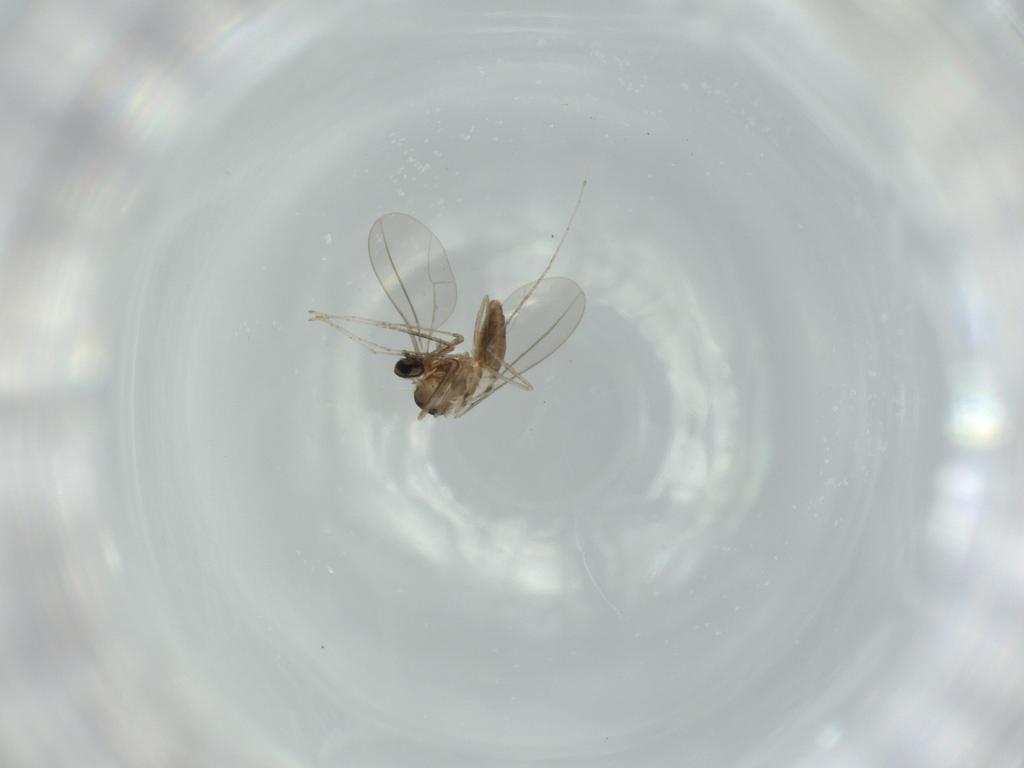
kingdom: Animalia
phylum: Arthropoda
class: Insecta
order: Diptera
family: Cecidomyiidae
